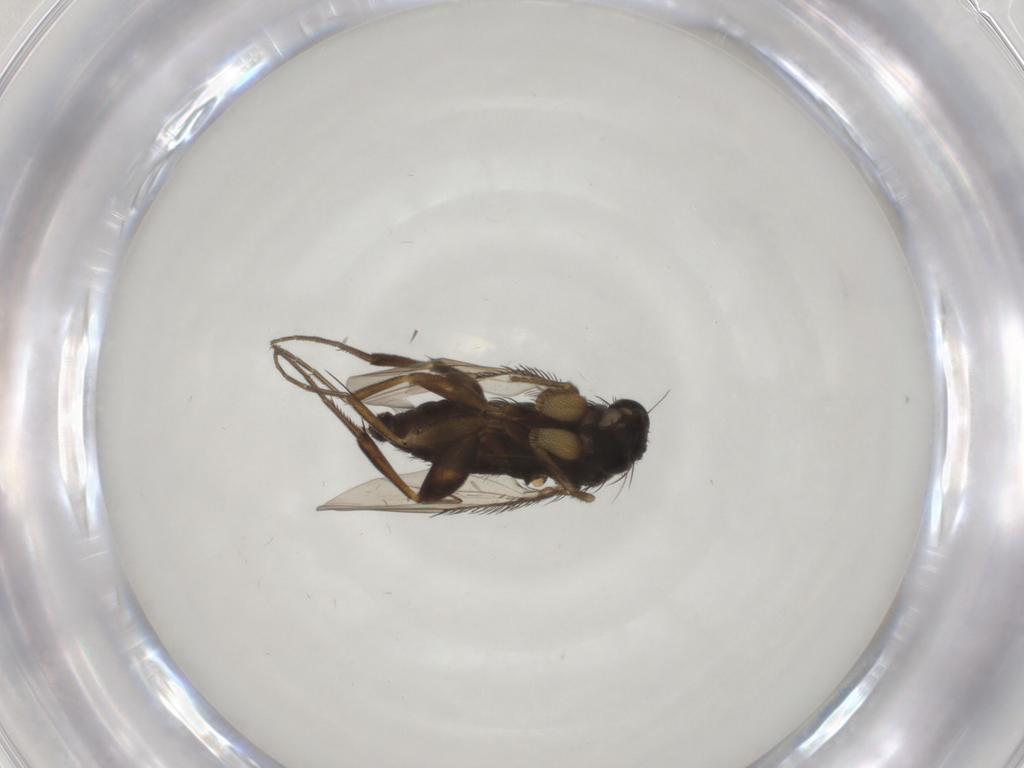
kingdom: Animalia
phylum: Arthropoda
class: Insecta
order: Diptera
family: Phoridae
